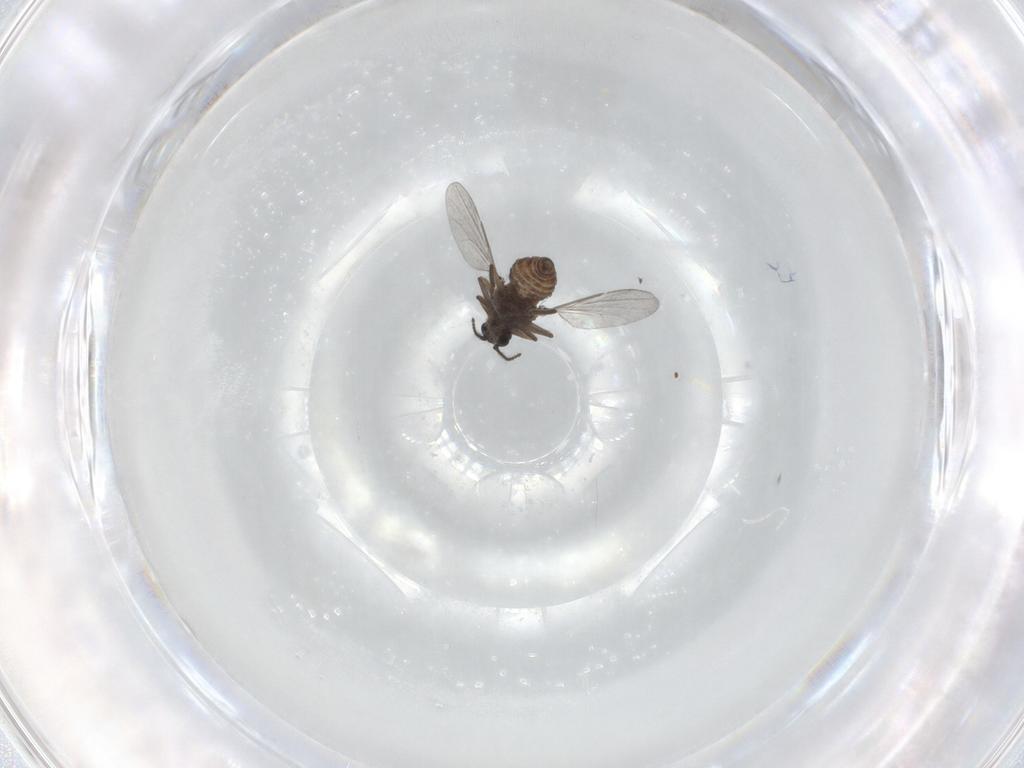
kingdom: Animalia
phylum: Arthropoda
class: Insecta
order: Diptera
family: Ceratopogonidae
